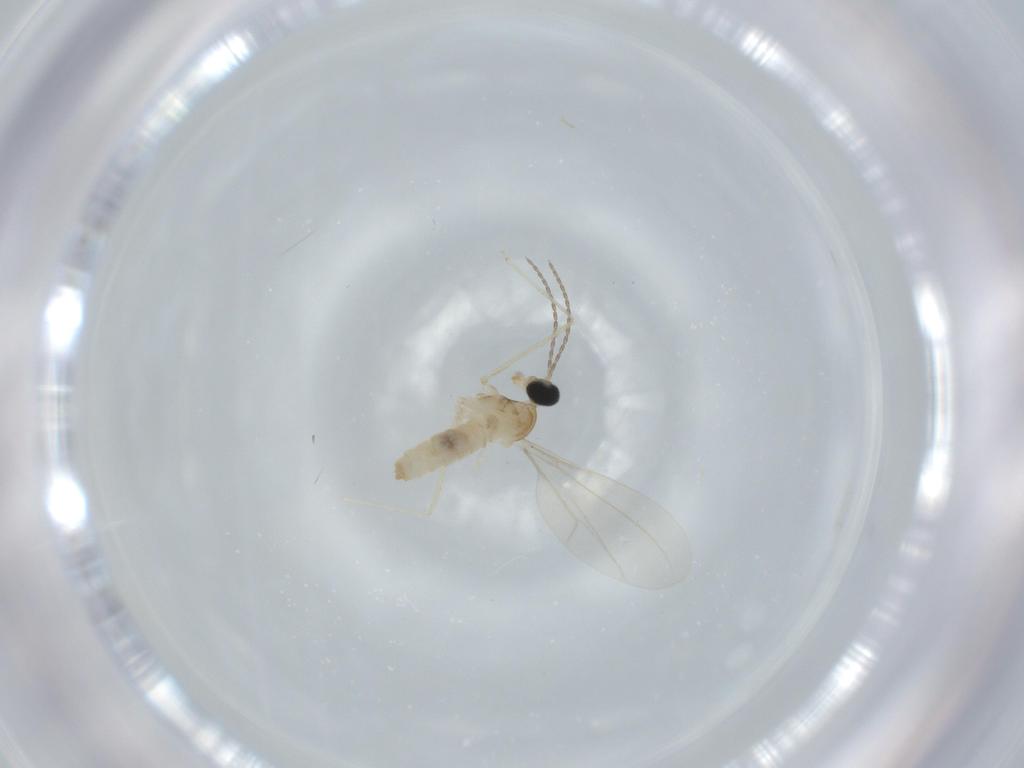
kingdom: Animalia
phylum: Arthropoda
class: Insecta
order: Diptera
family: Cecidomyiidae
